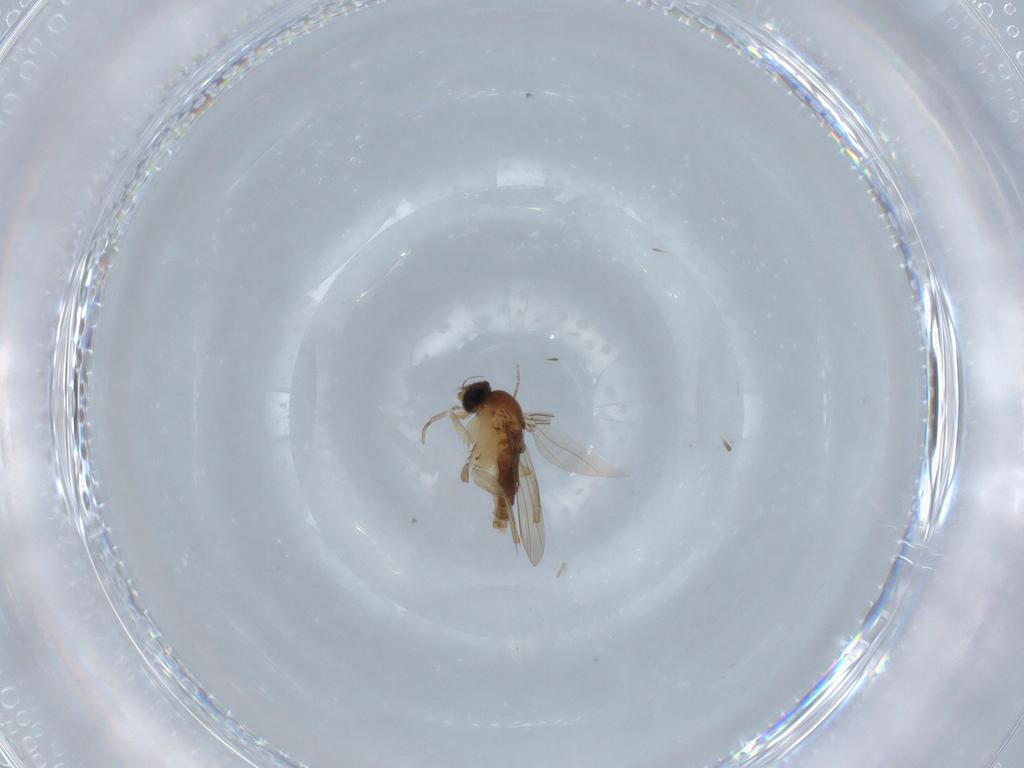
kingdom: Animalia
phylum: Arthropoda
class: Insecta
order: Diptera
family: Phoridae
